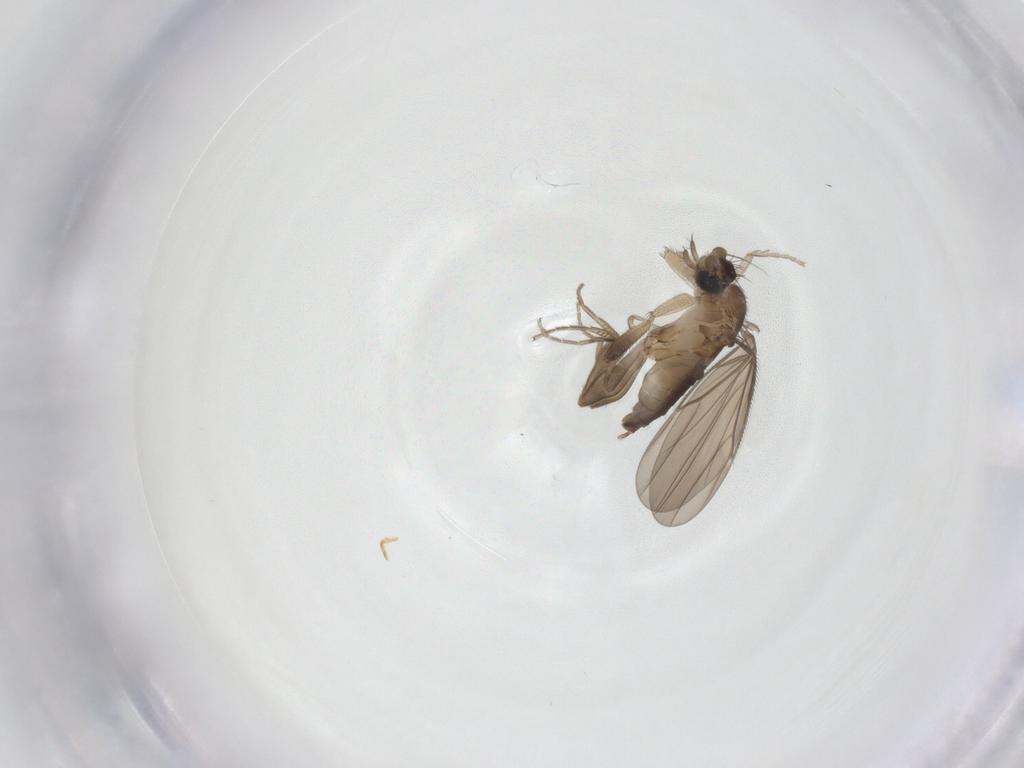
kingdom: Animalia
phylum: Arthropoda
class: Insecta
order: Diptera
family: Phoridae
